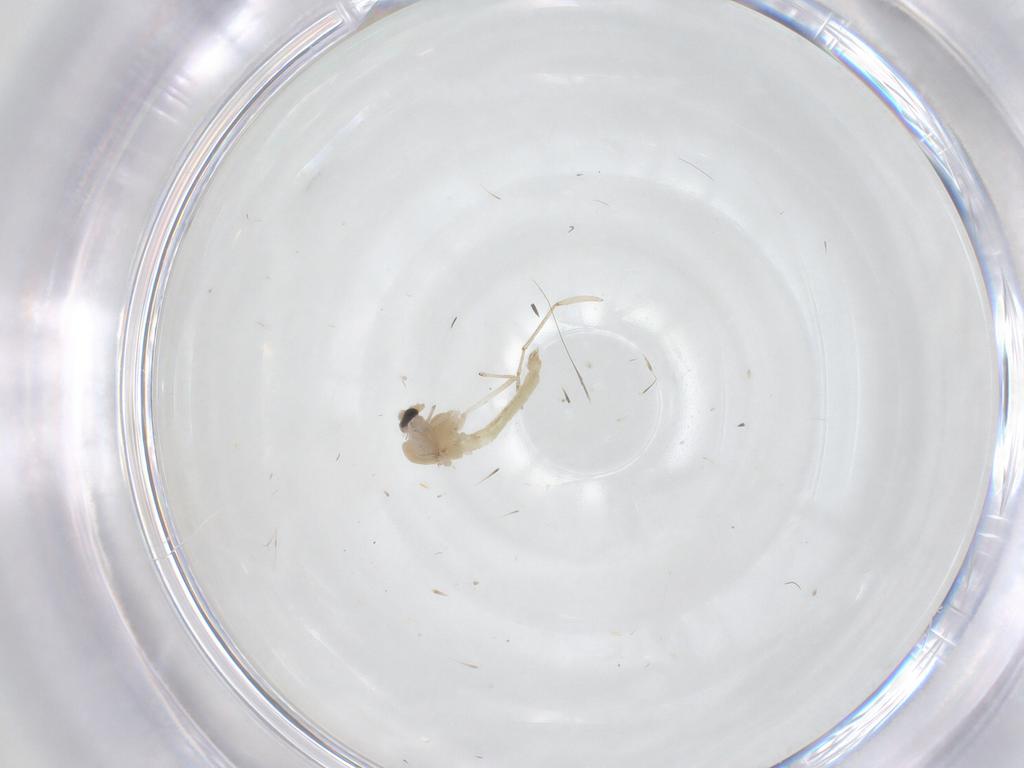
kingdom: Animalia
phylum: Arthropoda
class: Insecta
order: Diptera
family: Chironomidae
